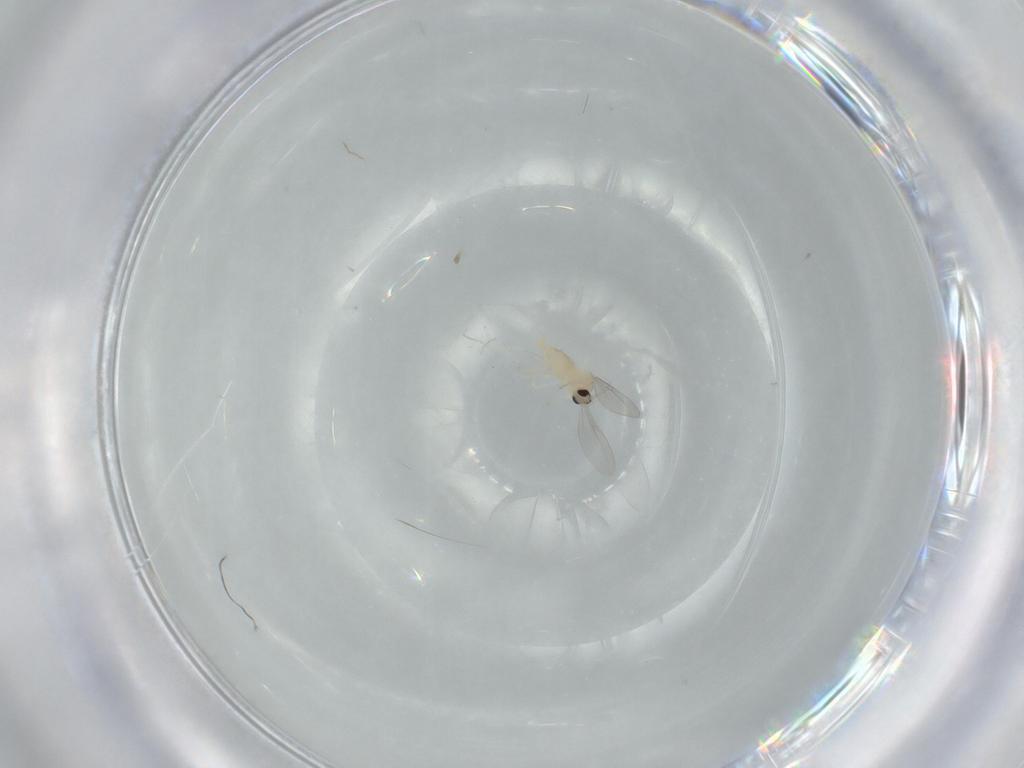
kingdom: Animalia
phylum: Arthropoda
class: Insecta
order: Diptera
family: Cecidomyiidae
